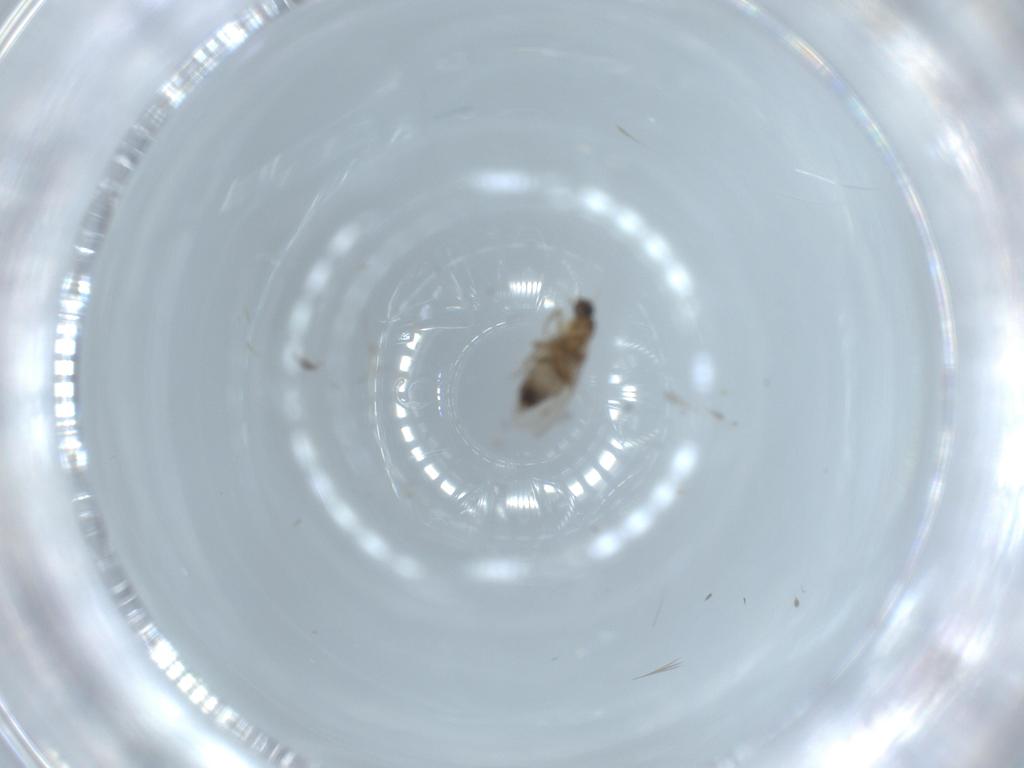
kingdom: Animalia
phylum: Arthropoda
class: Insecta
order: Diptera
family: Phoridae
